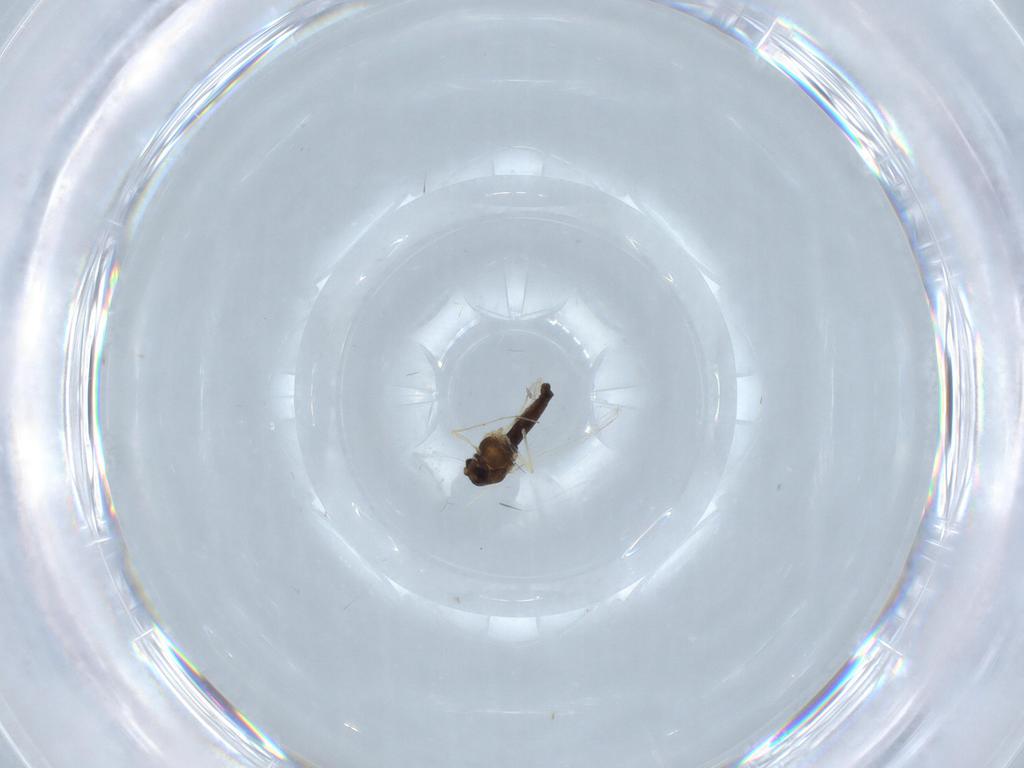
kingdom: Animalia
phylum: Arthropoda
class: Insecta
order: Diptera
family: Chironomidae
